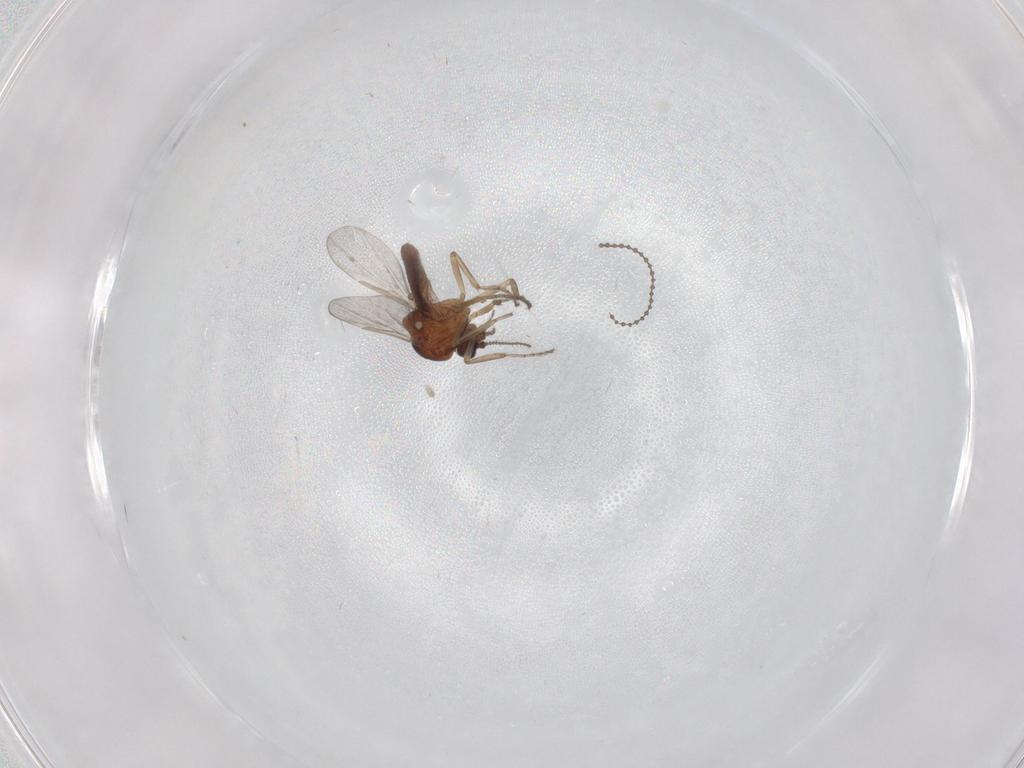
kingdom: Animalia
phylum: Arthropoda
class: Insecta
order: Diptera
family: Ceratopogonidae
